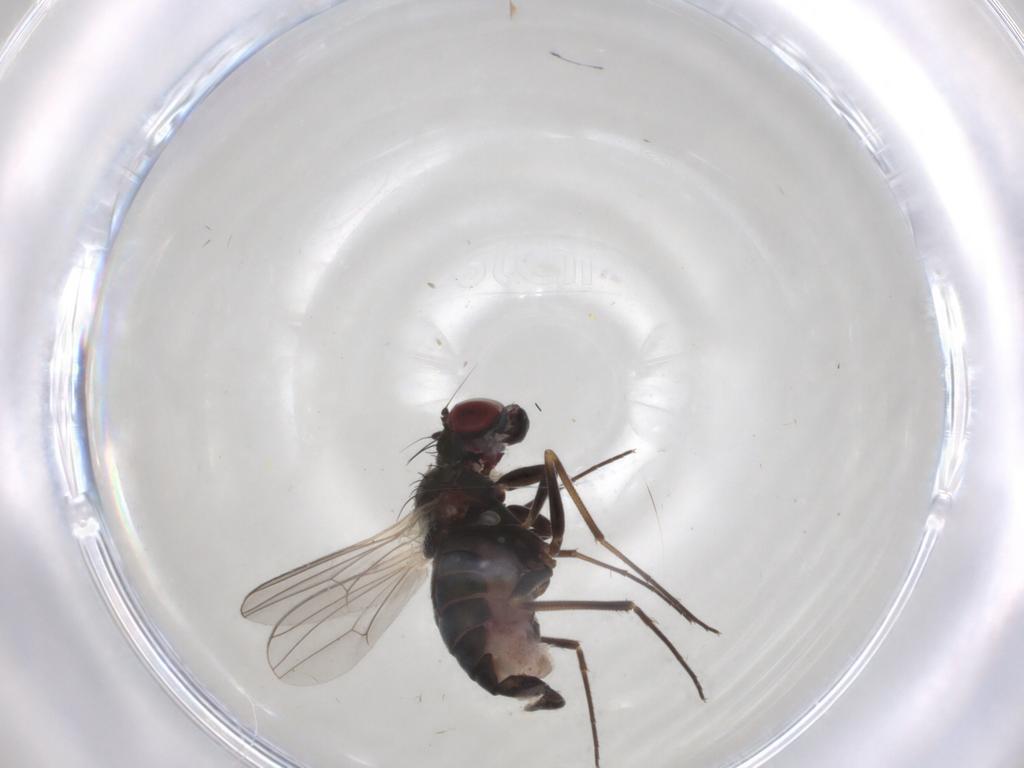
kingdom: Animalia
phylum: Arthropoda
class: Insecta
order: Diptera
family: Dolichopodidae
